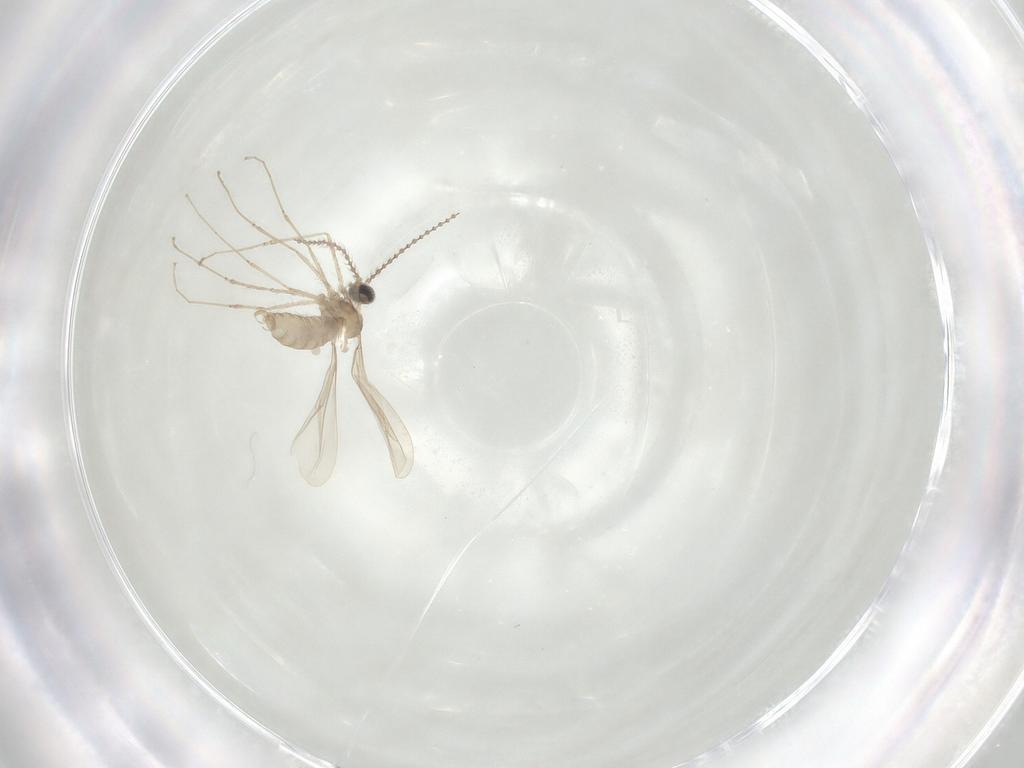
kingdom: Animalia
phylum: Arthropoda
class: Insecta
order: Diptera
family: Cecidomyiidae
